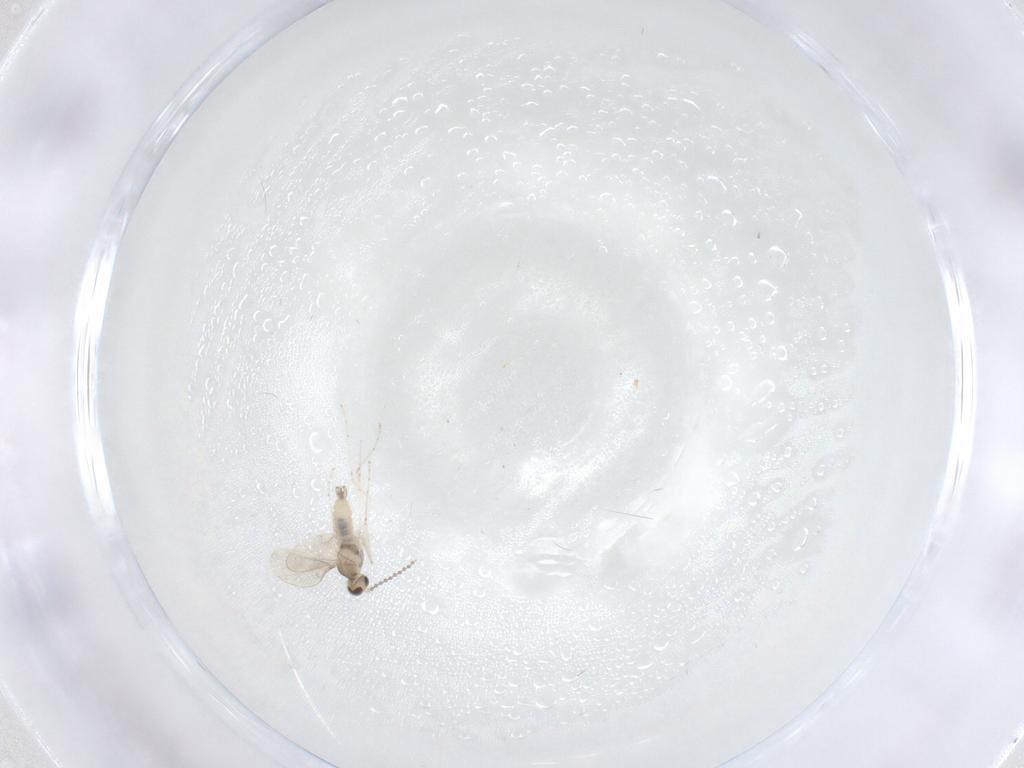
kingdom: Animalia
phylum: Arthropoda
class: Insecta
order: Diptera
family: Cecidomyiidae
